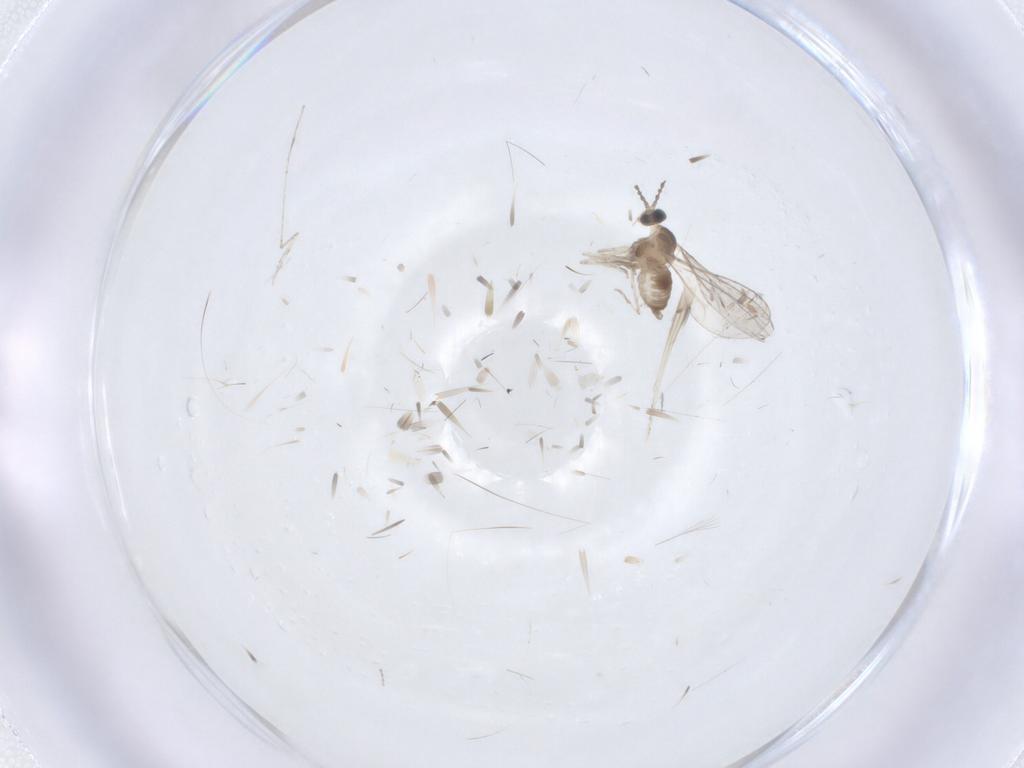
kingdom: Animalia
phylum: Arthropoda
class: Insecta
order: Diptera
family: Cecidomyiidae
